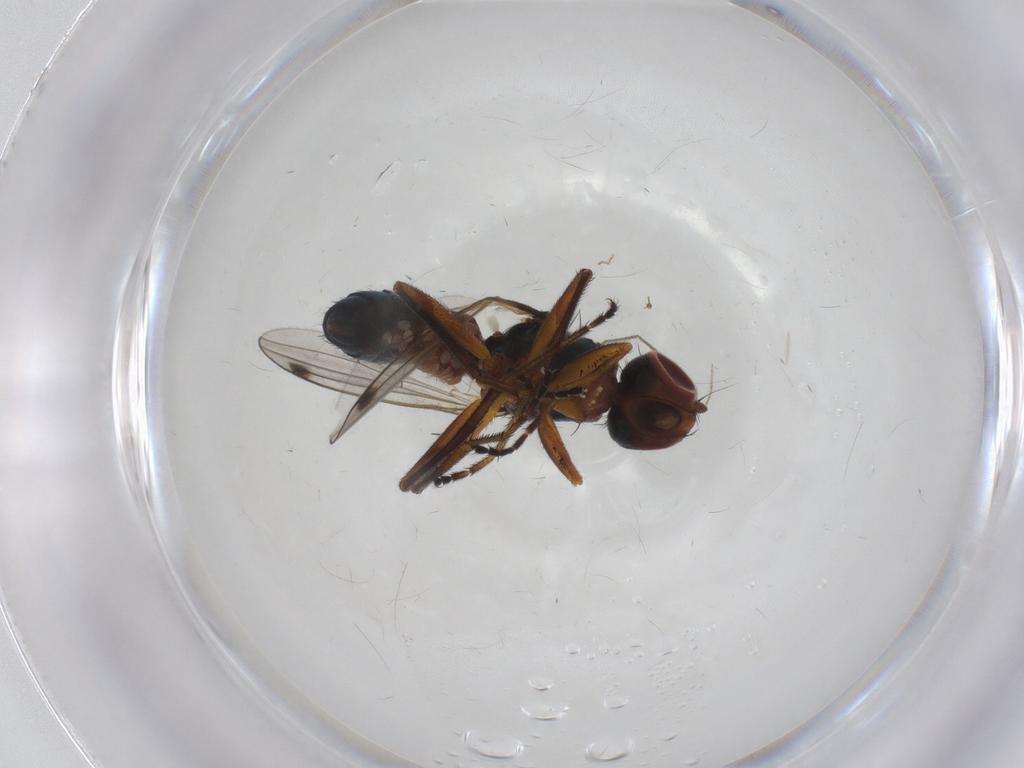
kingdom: Animalia
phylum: Arthropoda
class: Insecta
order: Diptera
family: Sepsidae
